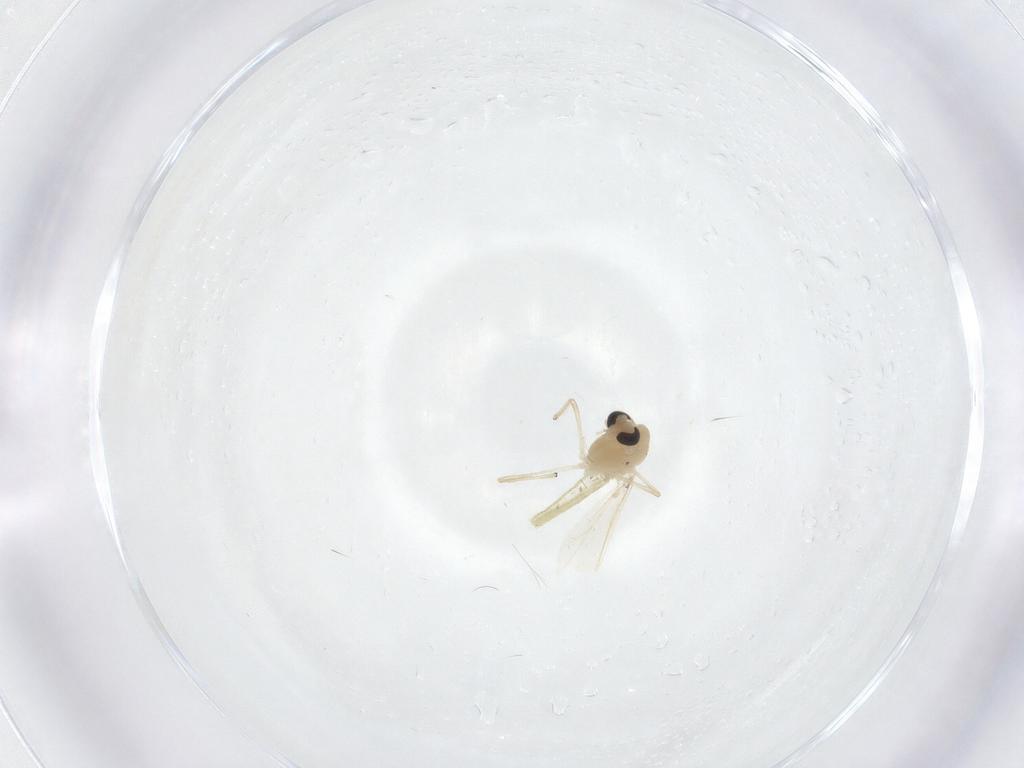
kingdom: Animalia
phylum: Arthropoda
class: Insecta
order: Diptera
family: Chironomidae
